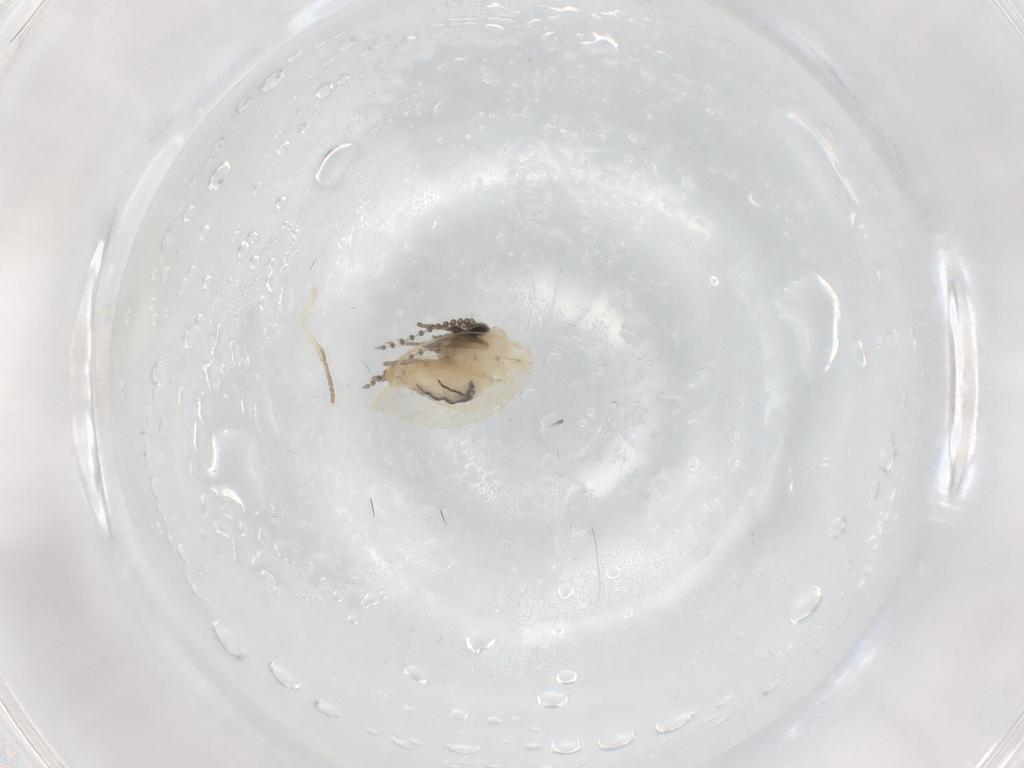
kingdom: Animalia
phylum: Arthropoda
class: Insecta
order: Diptera
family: Psychodidae
